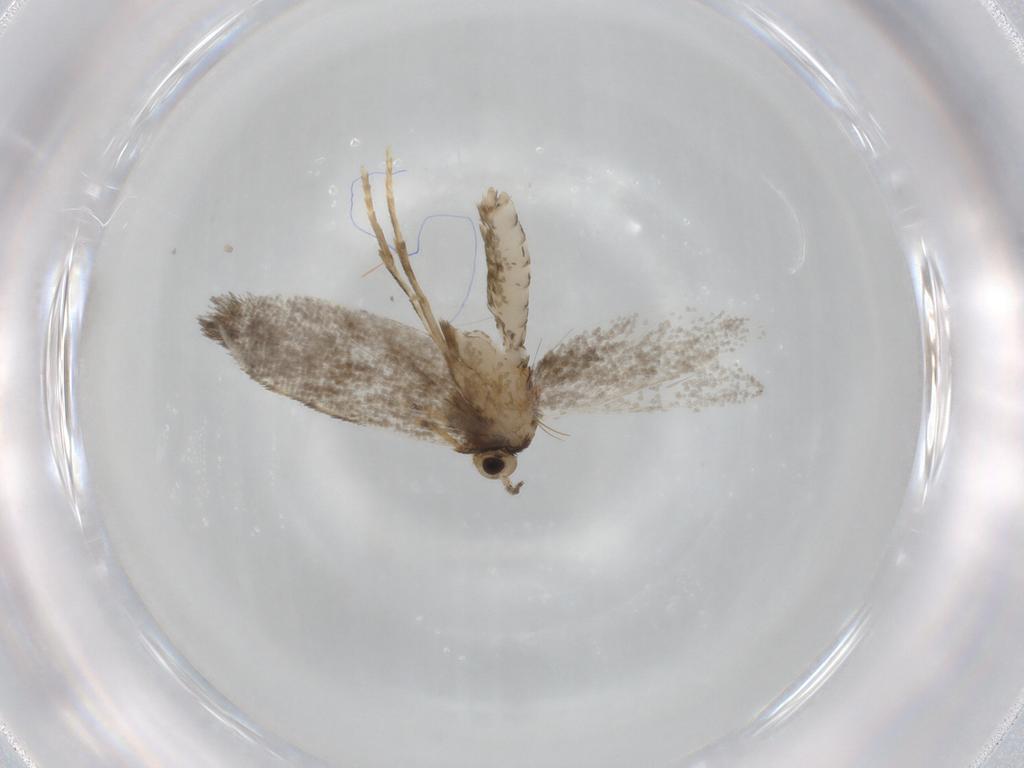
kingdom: Animalia
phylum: Arthropoda
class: Insecta
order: Lepidoptera
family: Psychidae
